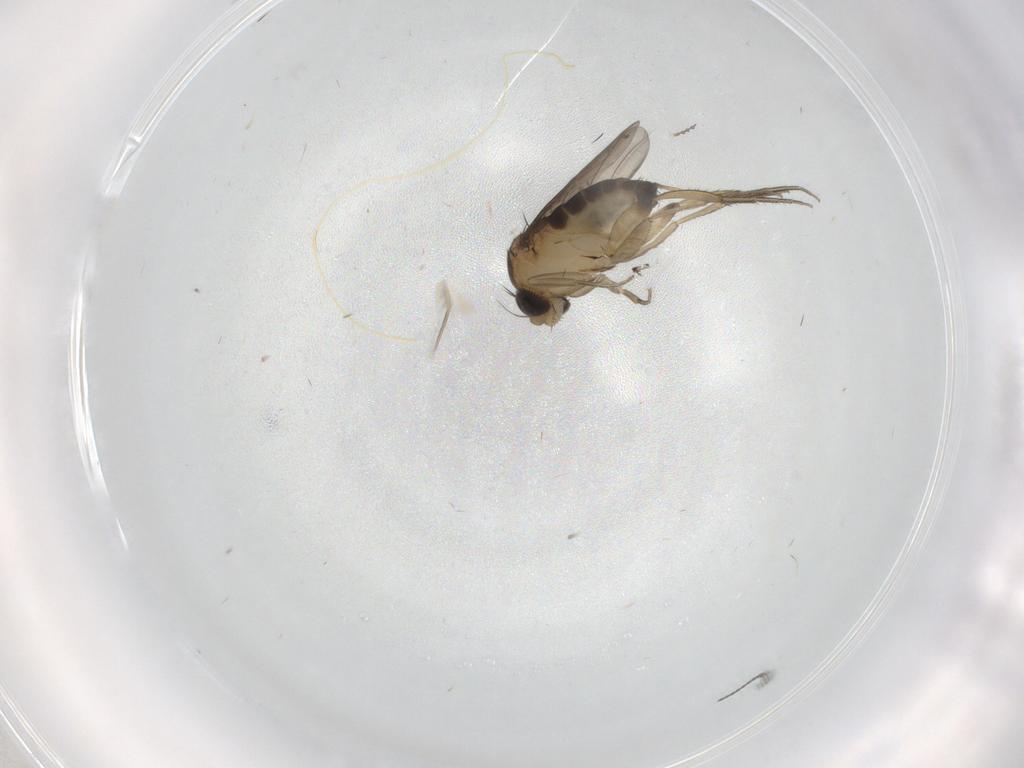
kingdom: Animalia
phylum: Arthropoda
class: Insecta
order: Diptera
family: Phoridae
